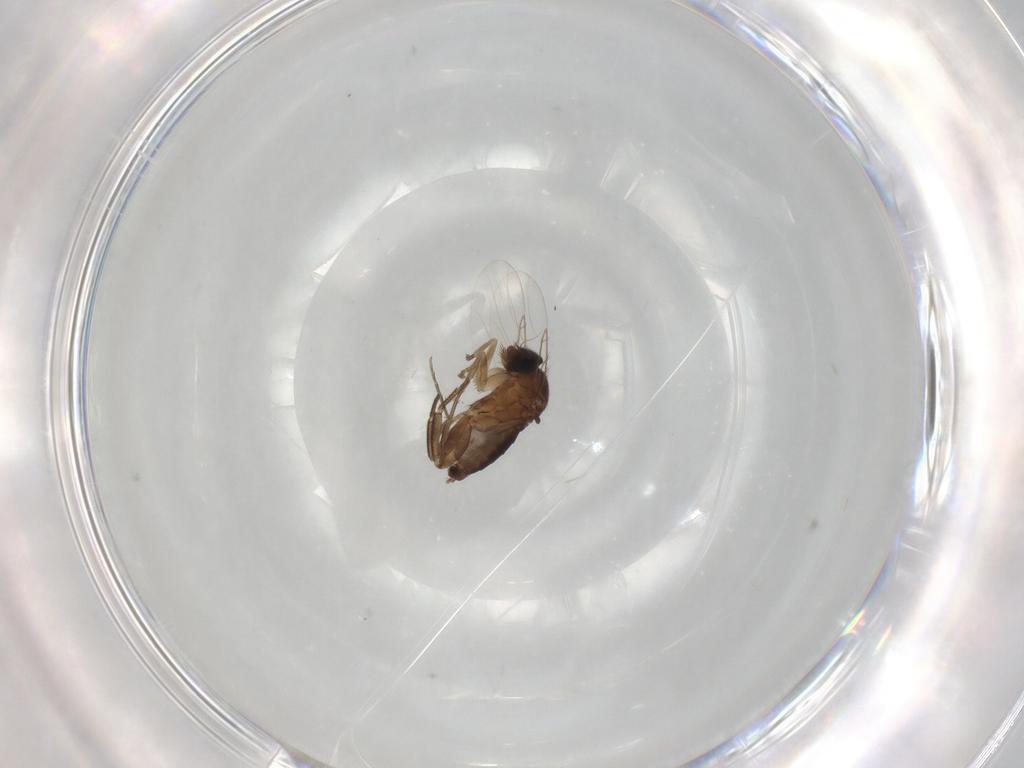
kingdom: Animalia
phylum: Arthropoda
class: Insecta
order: Diptera
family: Phoridae
